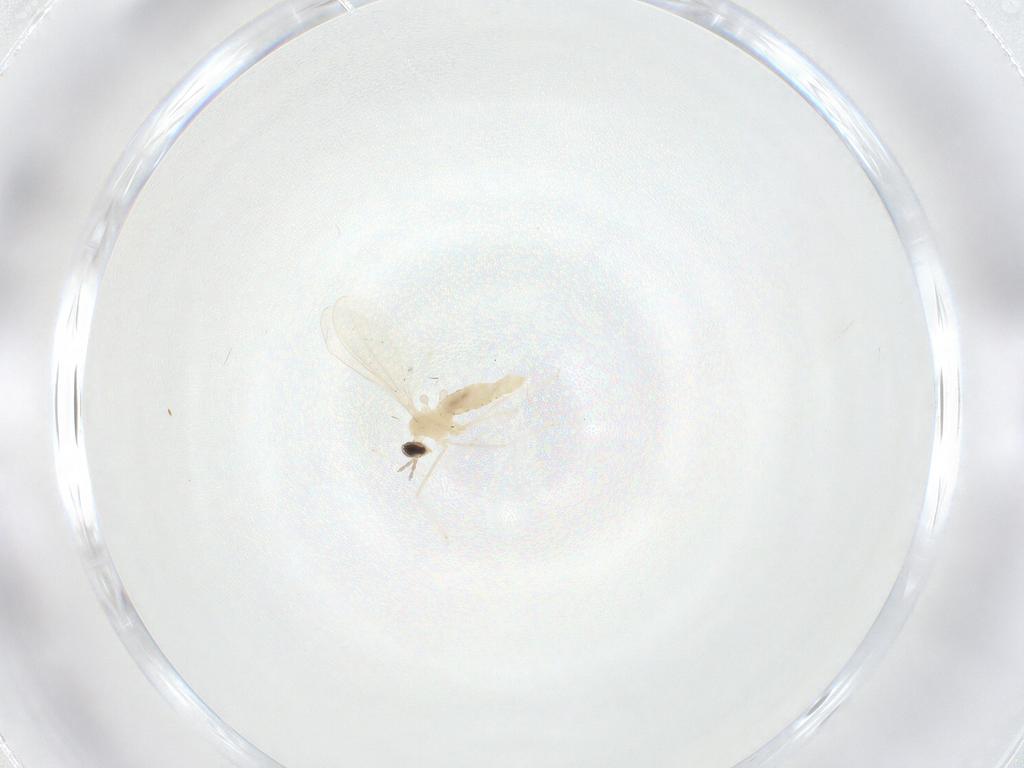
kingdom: Animalia
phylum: Arthropoda
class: Insecta
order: Diptera
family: Cecidomyiidae
